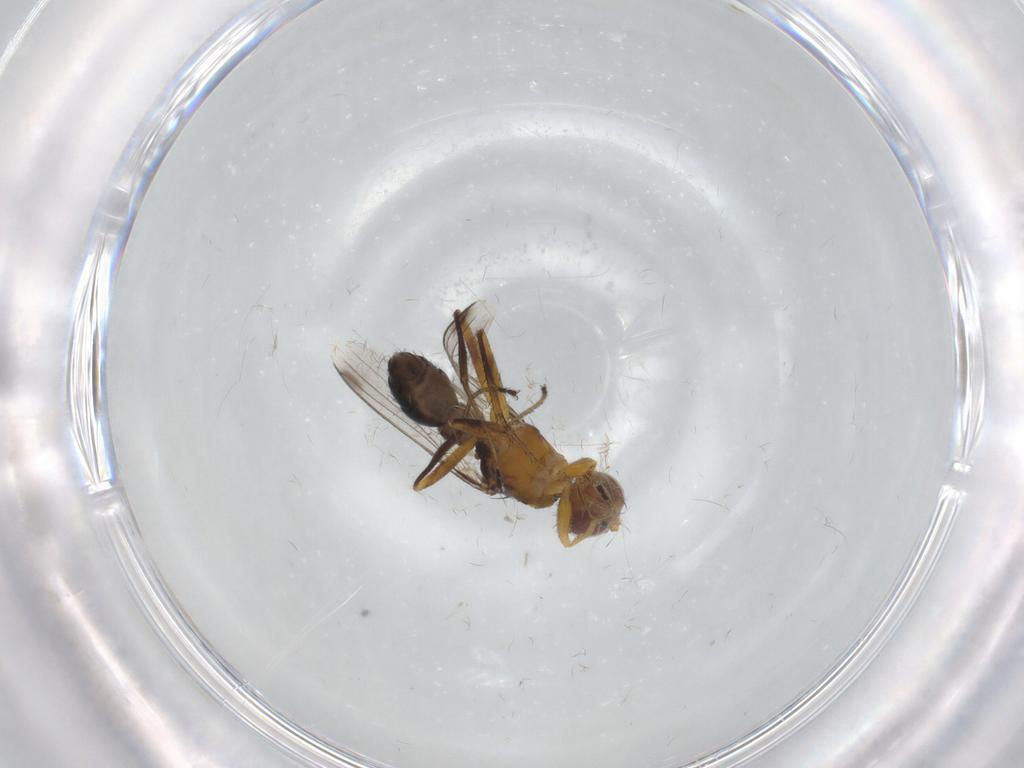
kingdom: Animalia
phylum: Arthropoda
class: Insecta
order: Diptera
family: Sepsidae
